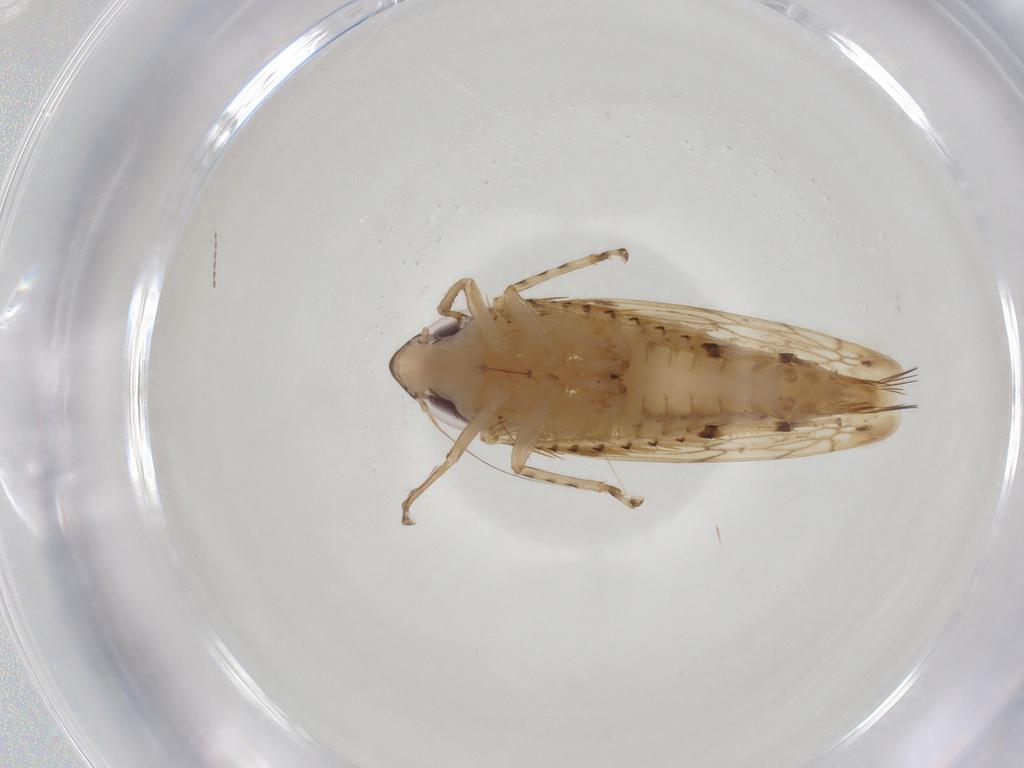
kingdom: Animalia
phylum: Arthropoda
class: Insecta
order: Hemiptera
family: Cicadellidae
